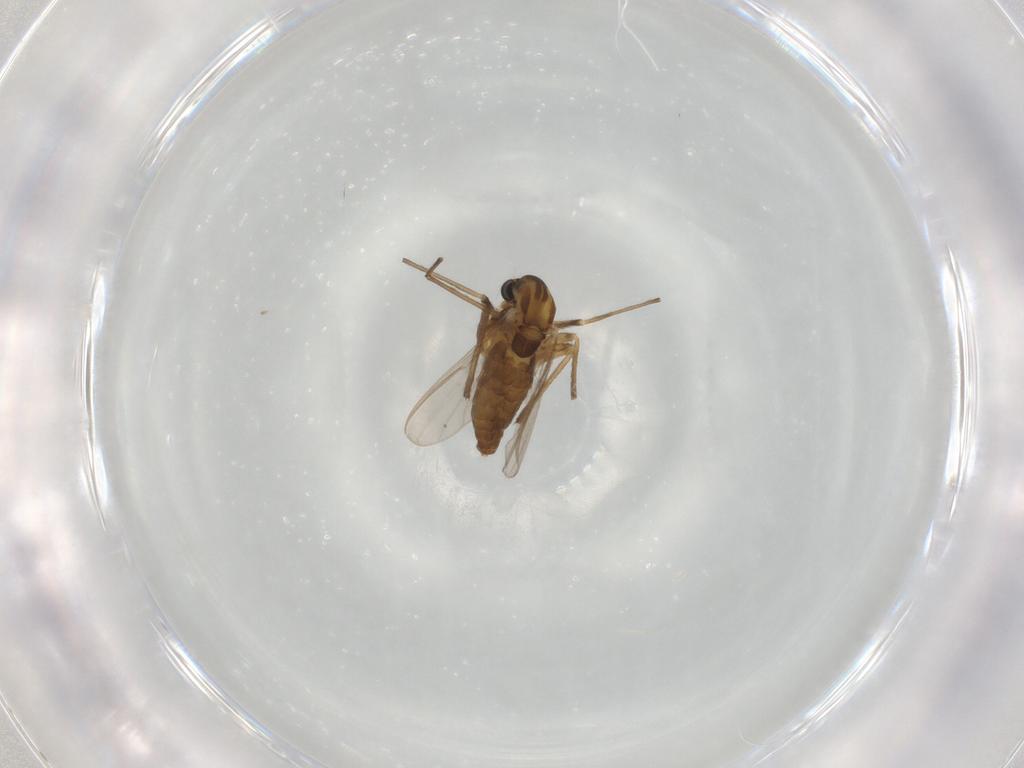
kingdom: Animalia
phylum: Arthropoda
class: Insecta
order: Diptera
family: Chironomidae
